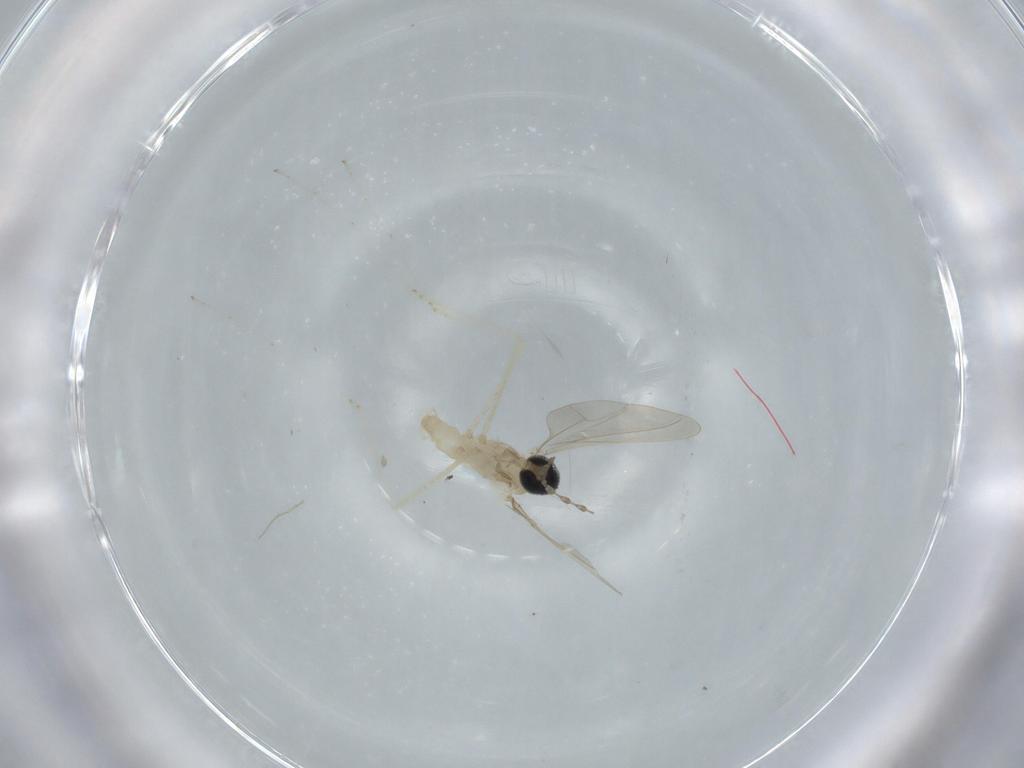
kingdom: Animalia
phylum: Arthropoda
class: Insecta
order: Diptera
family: Cecidomyiidae
